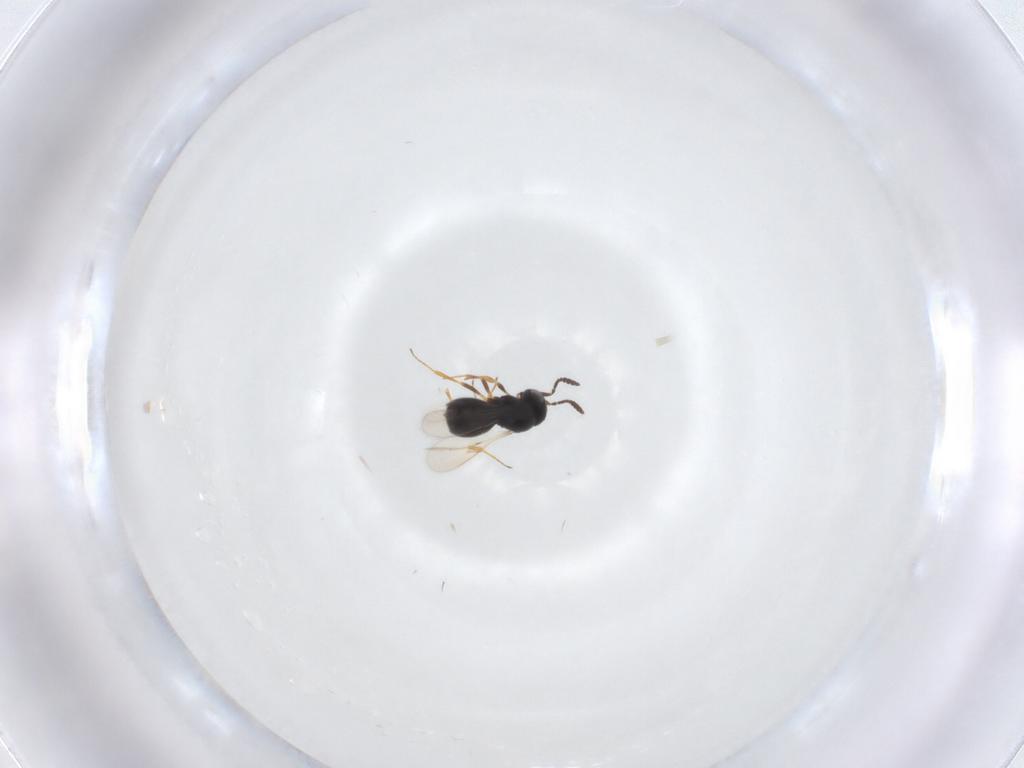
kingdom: Animalia
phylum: Arthropoda
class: Insecta
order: Hymenoptera
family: Scelionidae
